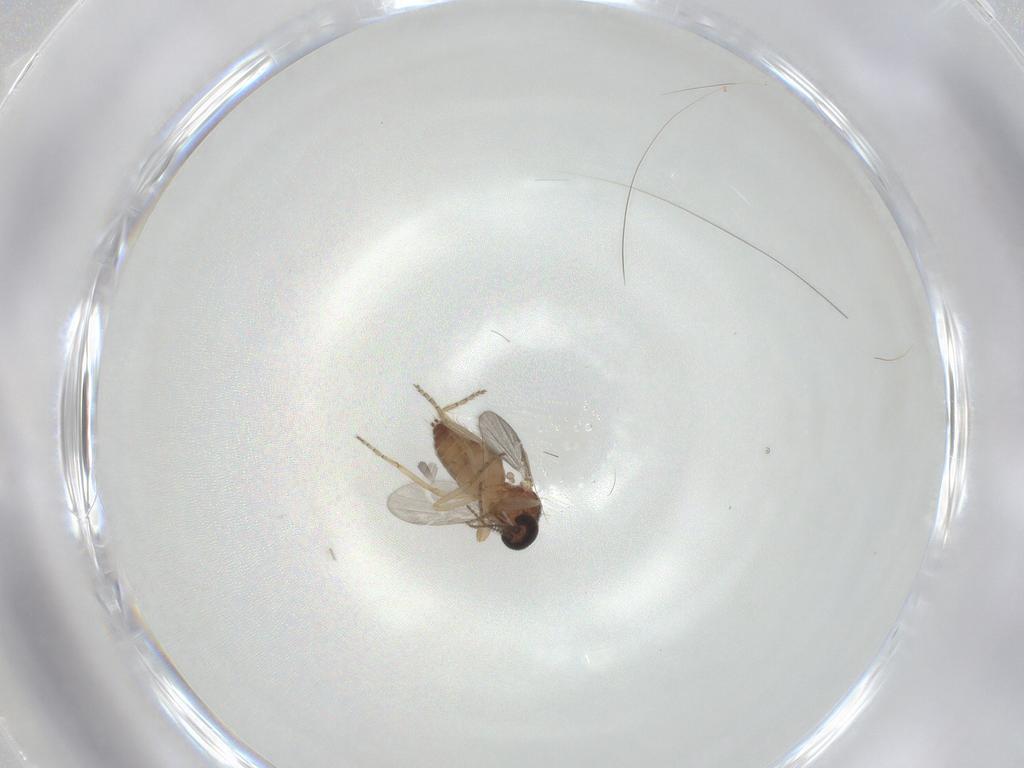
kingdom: Animalia
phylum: Arthropoda
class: Insecta
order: Diptera
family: Ceratopogonidae
